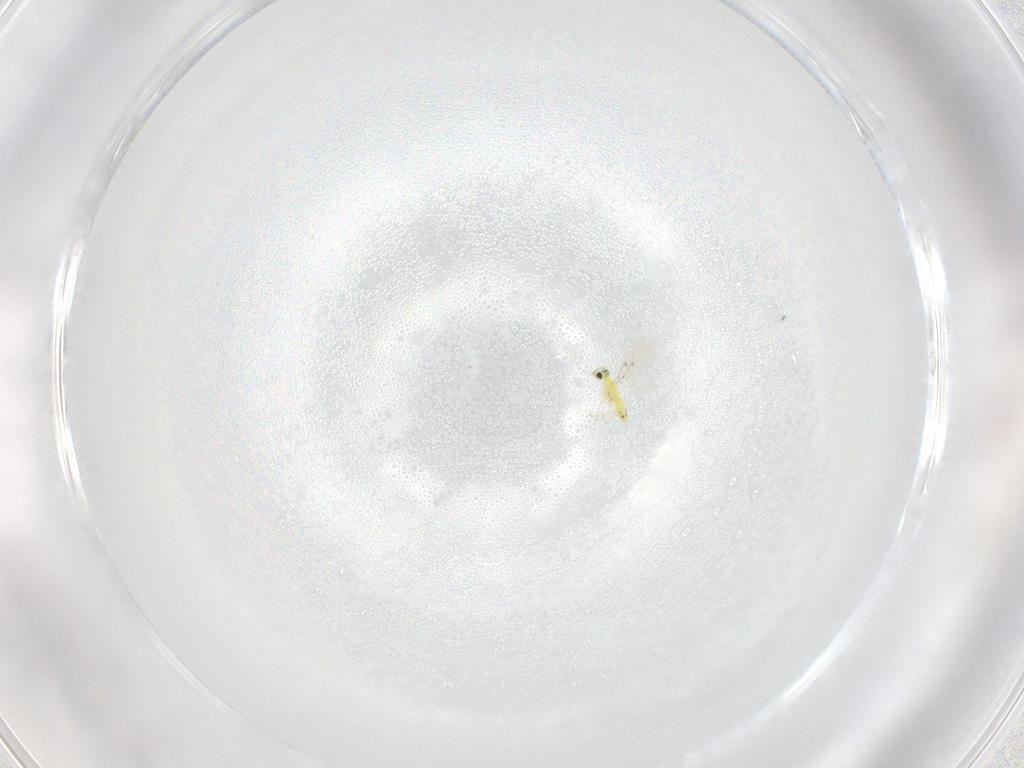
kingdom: Animalia
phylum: Arthropoda
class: Insecta
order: Hymenoptera
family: Trichogrammatidae
